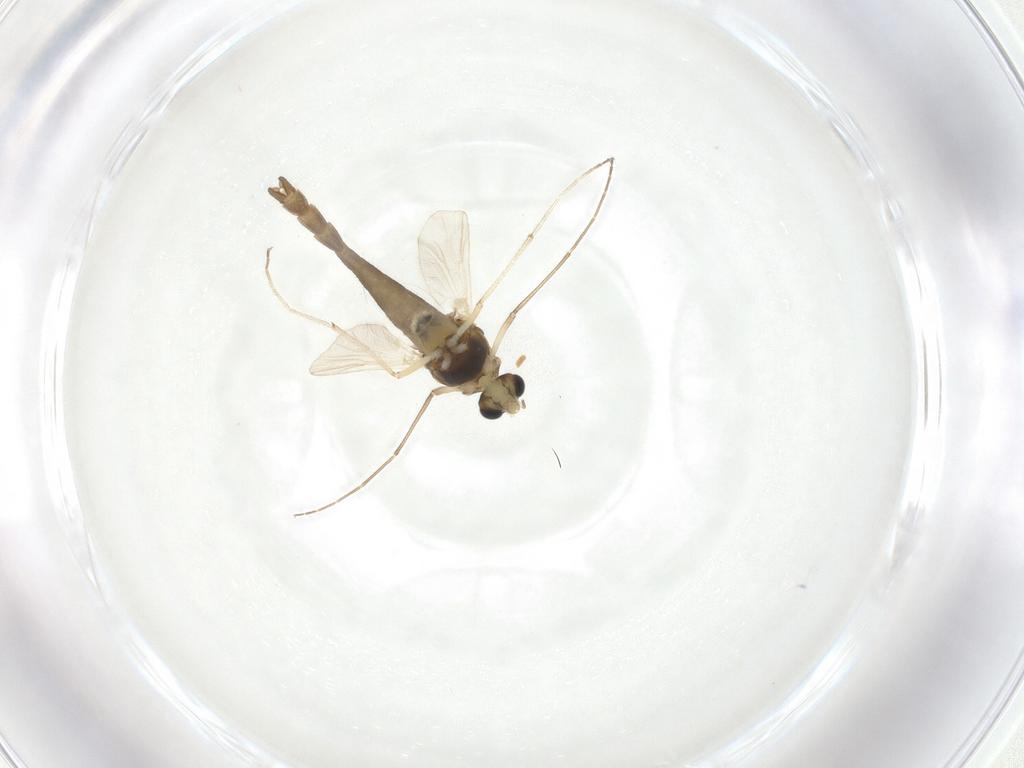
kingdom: Animalia
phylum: Arthropoda
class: Insecta
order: Diptera
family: Chironomidae
